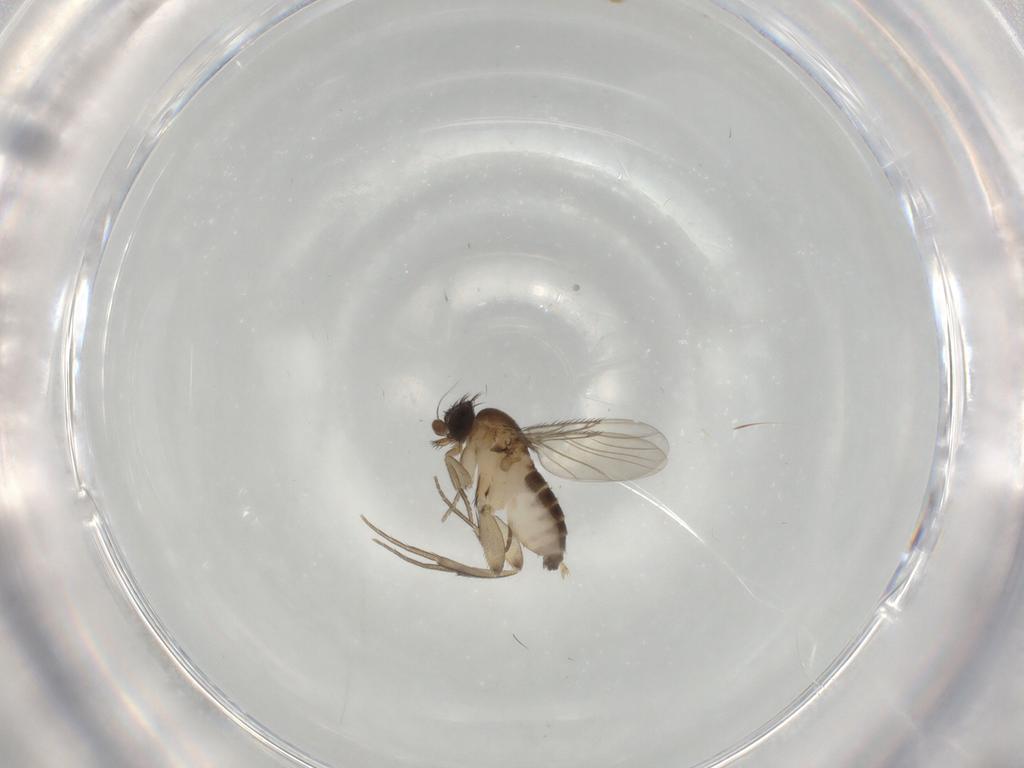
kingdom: Animalia
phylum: Arthropoda
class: Insecta
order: Diptera
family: Phoridae
